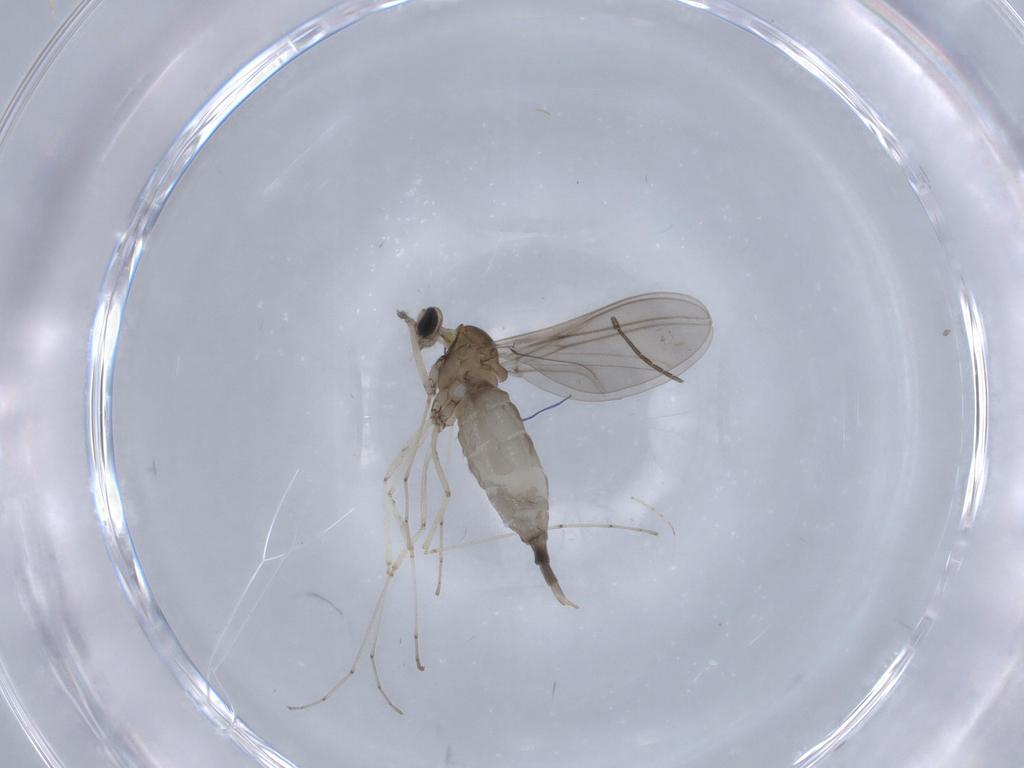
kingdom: Animalia
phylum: Arthropoda
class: Insecta
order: Diptera
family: Cecidomyiidae
